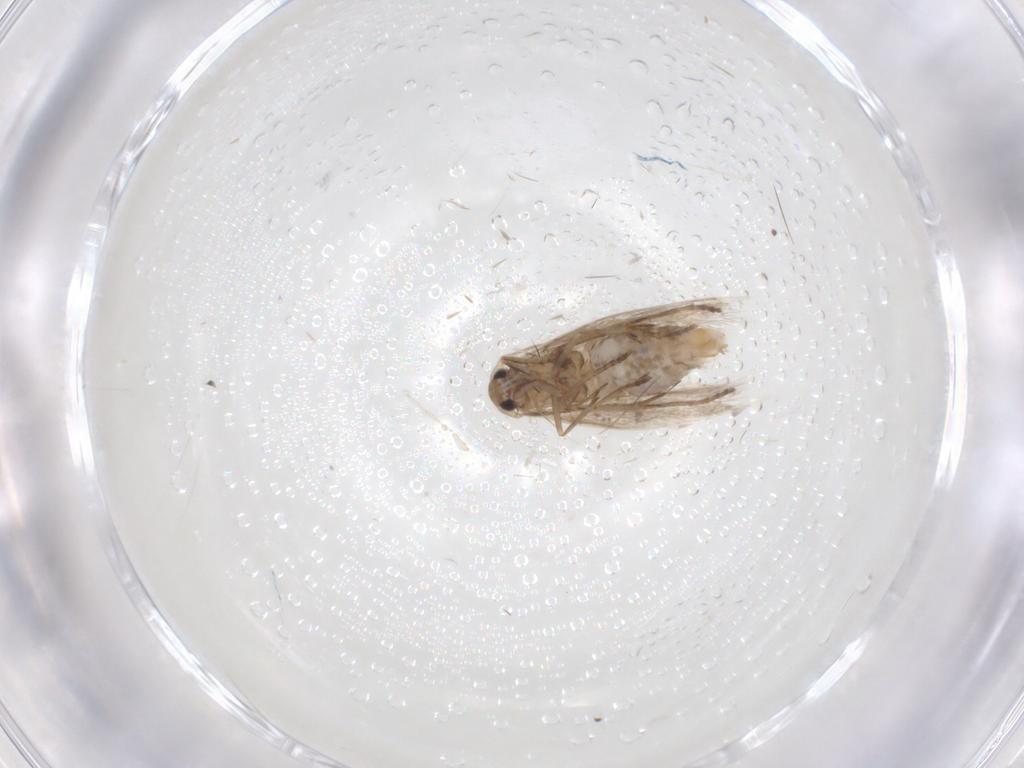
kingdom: Animalia
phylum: Arthropoda
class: Insecta
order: Lepidoptera
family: Bucculatricidae
